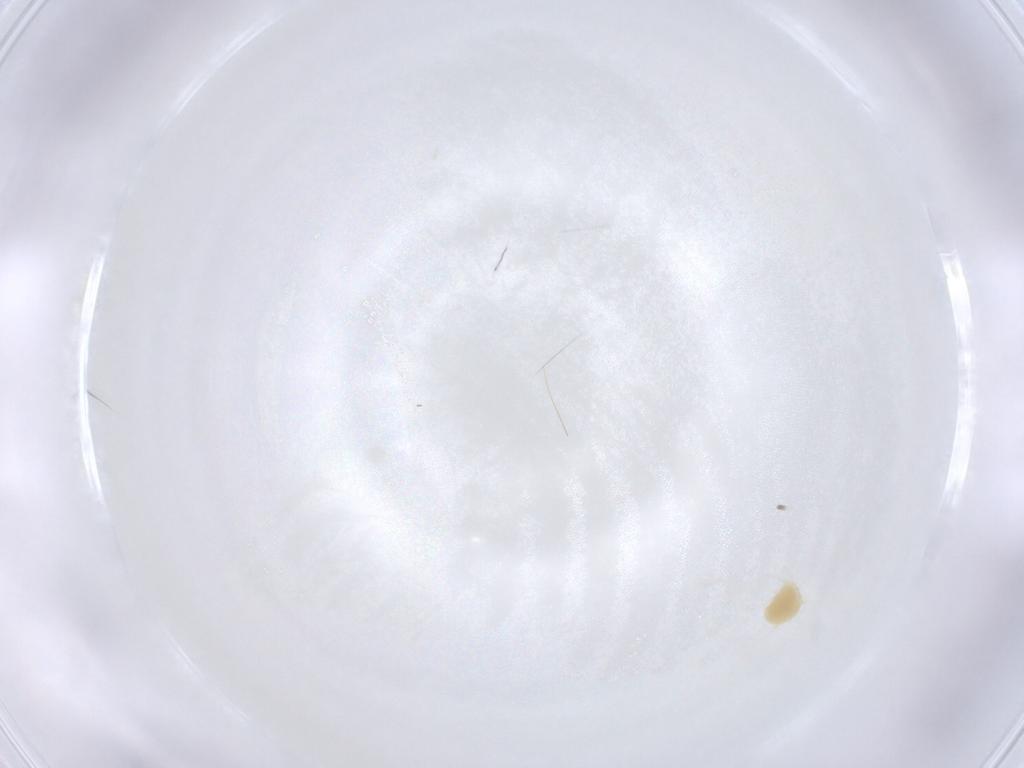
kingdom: Animalia
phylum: Arthropoda
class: Arachnida
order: Trombidiformes
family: Tetranychidae
